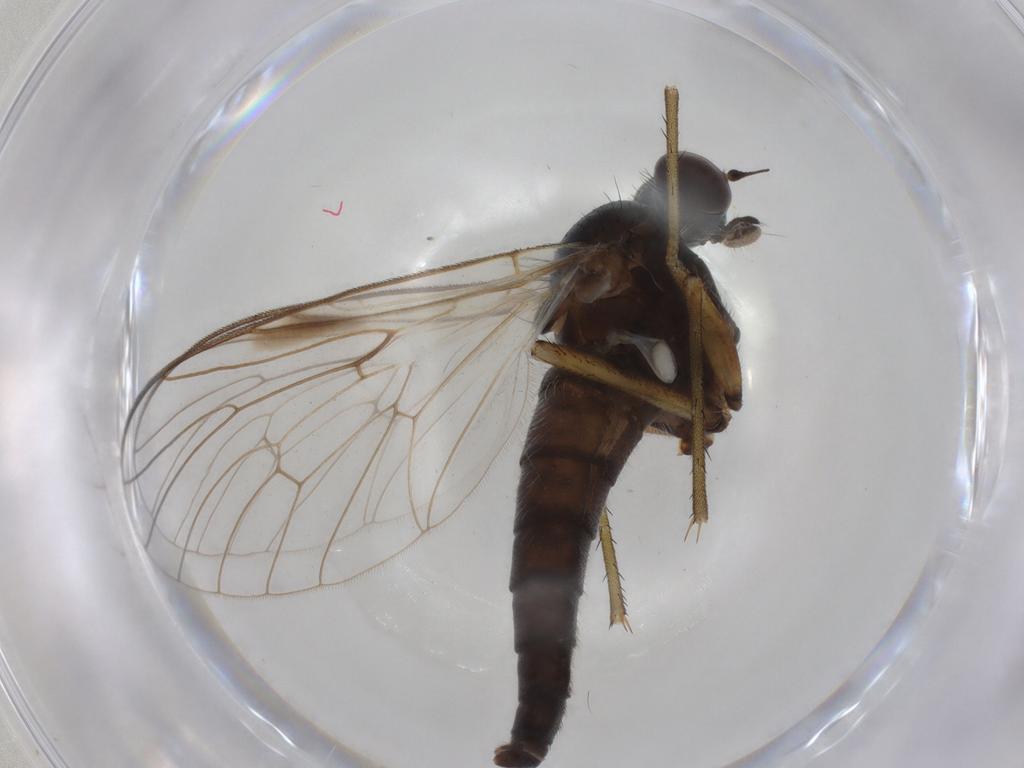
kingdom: Animalia
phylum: Arthropoda
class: Insecta
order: Diptera
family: Rhagionidae
